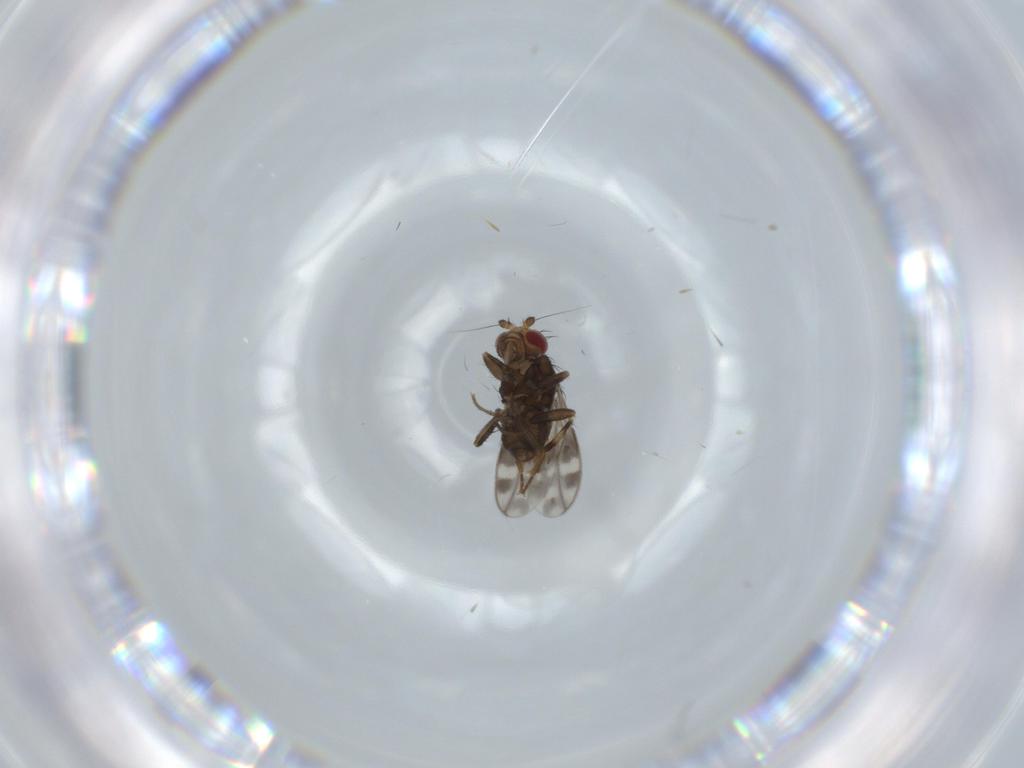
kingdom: Animalia
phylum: Arthropoda
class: Insecta
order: Diptera
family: Sphaeroceridae
